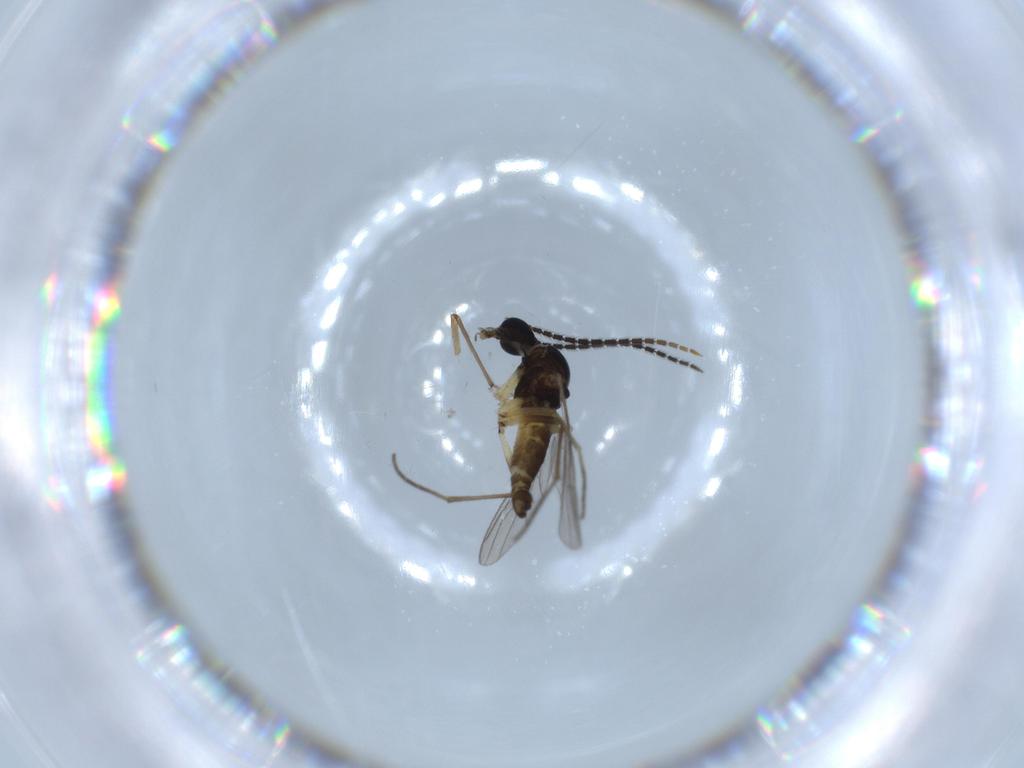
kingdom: Animalia
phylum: Arthropoda
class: Insecta
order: Diptera
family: Sciaridae
